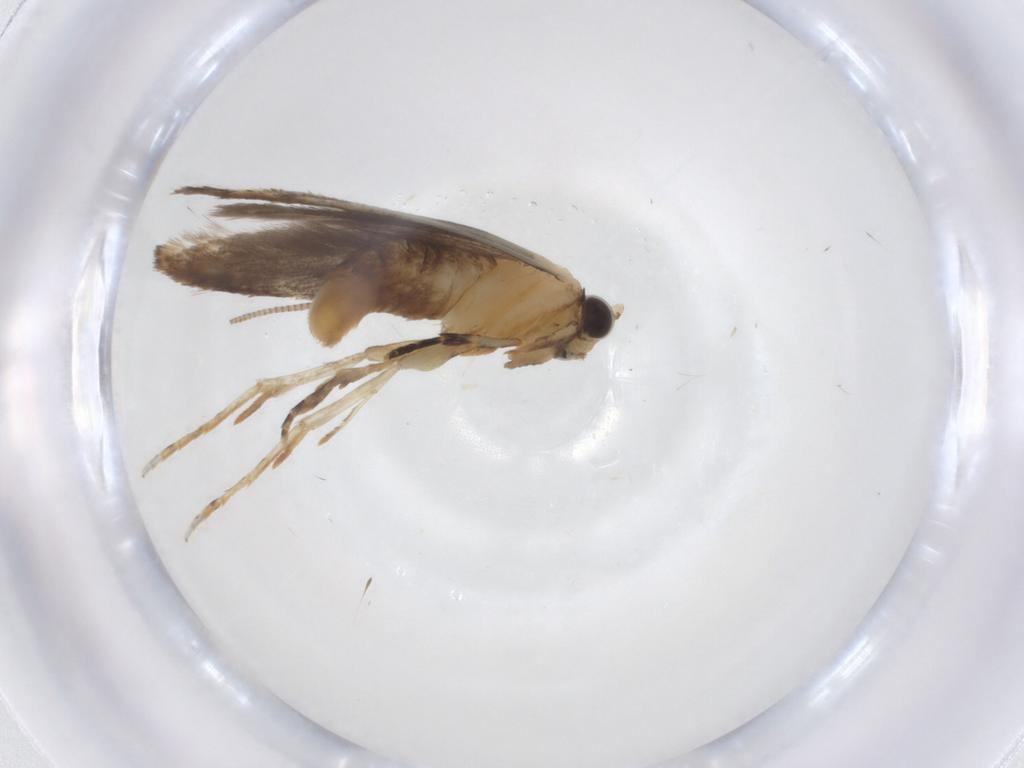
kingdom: Animalia
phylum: Arthropoda
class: Insecta
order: Lepidoptera
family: Tineidae
